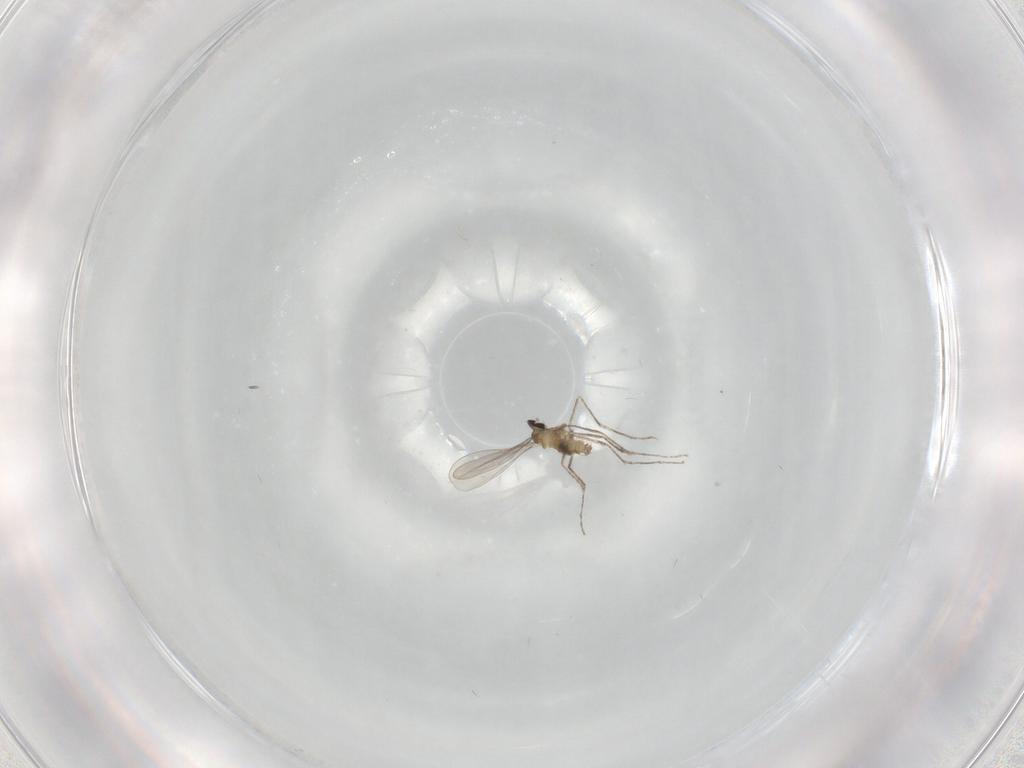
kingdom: Animalia
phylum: Arthropoda
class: Insecta
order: Diptera
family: Cecidomyiidae
